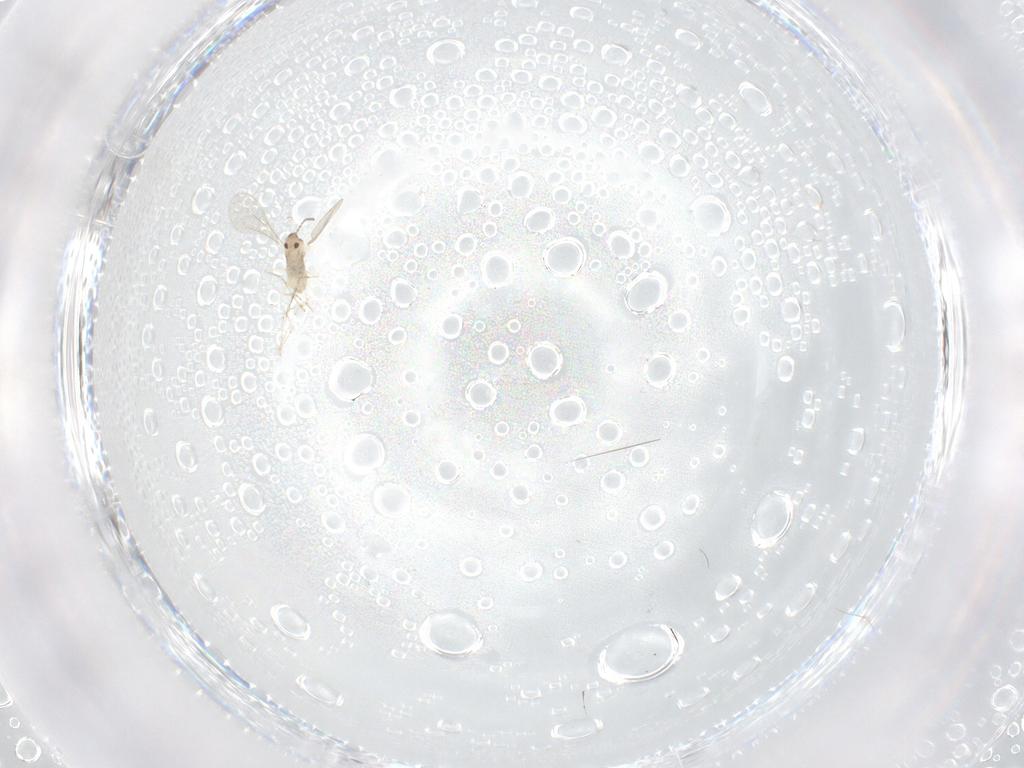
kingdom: Animalia
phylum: Arthropoda
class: Insecta
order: Diptera
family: Cecidomyiidae
